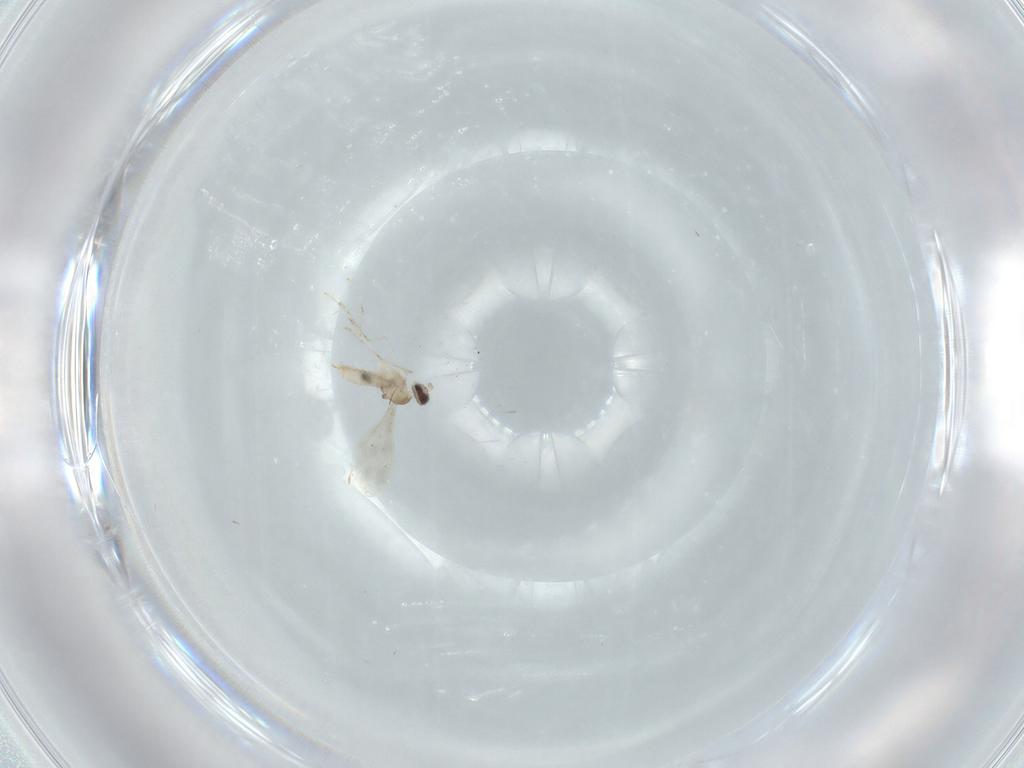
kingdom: Animalia
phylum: Arthropoda
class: Insecta
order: Diptera
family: Cecidomyiidae
